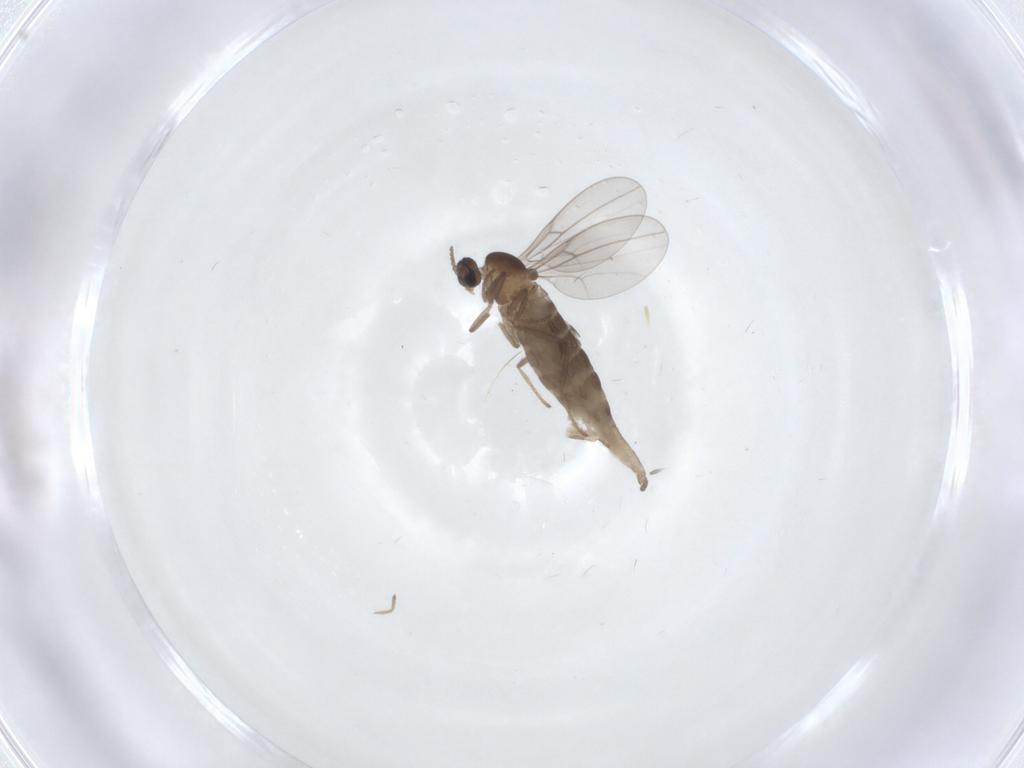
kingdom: Animalia
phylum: Arthropoda
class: Insecta
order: Diptera
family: Cecidomyiidae
